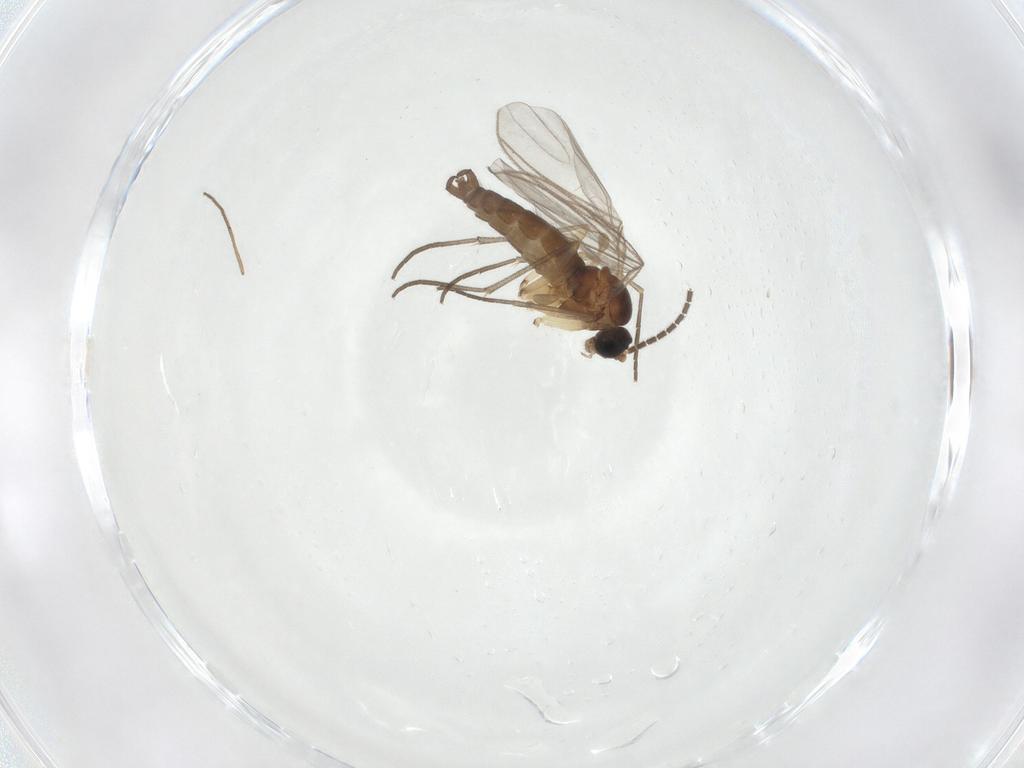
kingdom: Animalia
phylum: Arthropoda
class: Insecta
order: Diptera
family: Sciaridae
